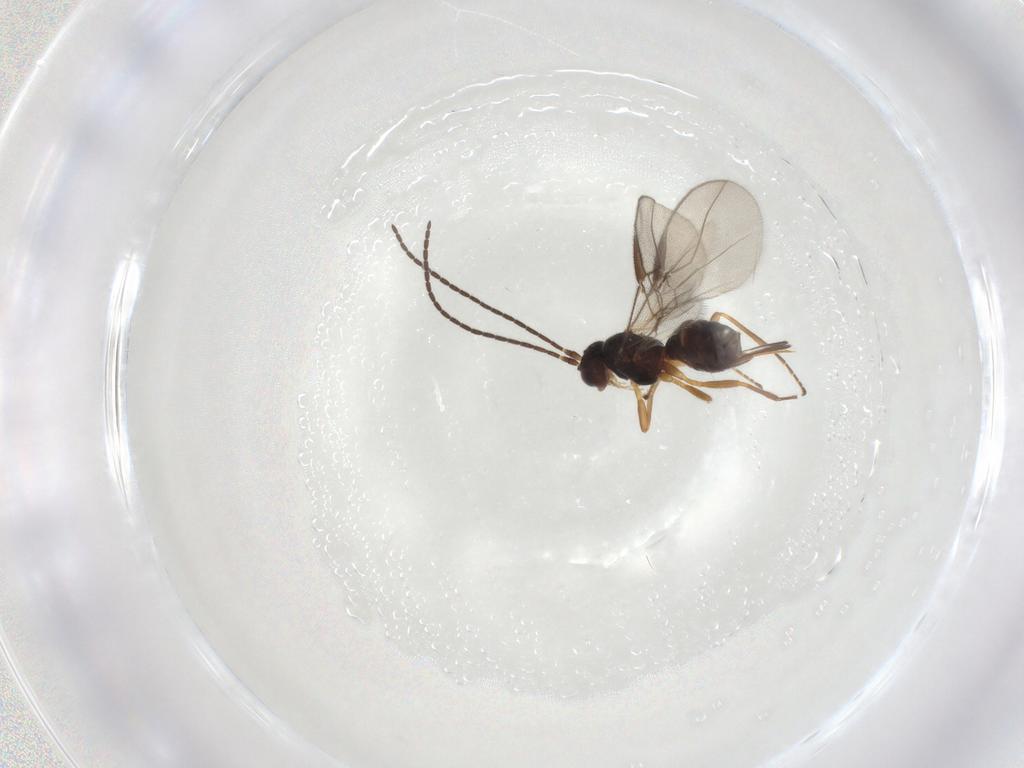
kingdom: Animalia
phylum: Arthropoda
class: Insecta
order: Hymenoptera
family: Braconidae
